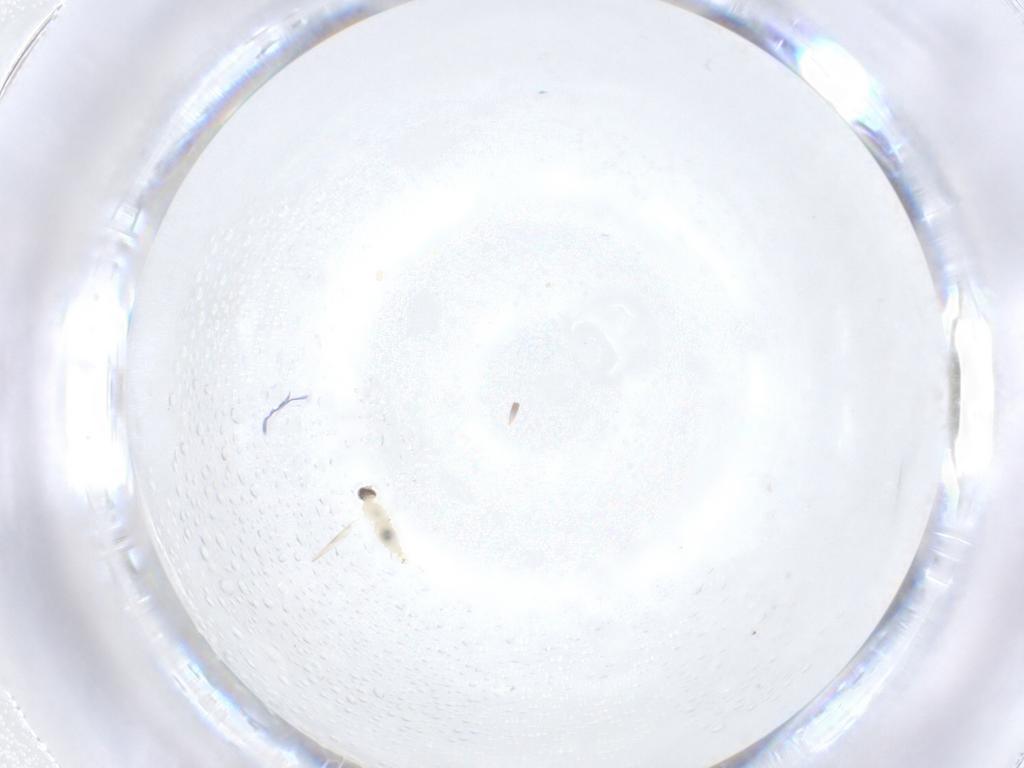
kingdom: Animalia
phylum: Arthropoda
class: Insecta
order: Diptera
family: Cecidomyiidae
